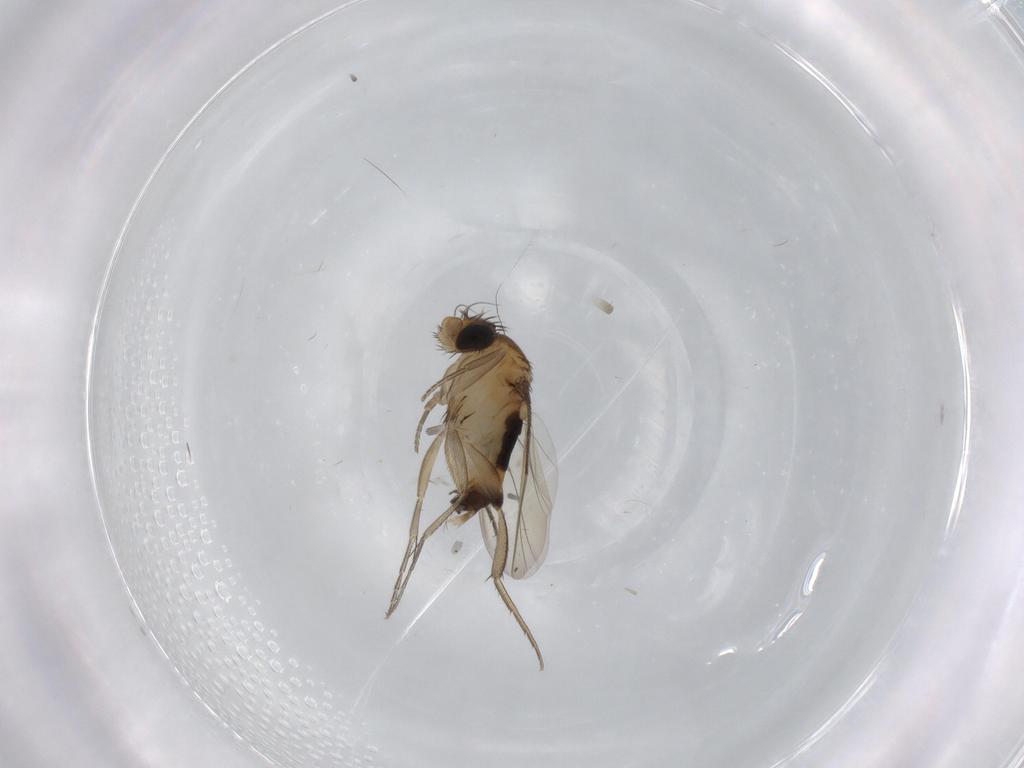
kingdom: Animalia
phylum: Arthropoda
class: Insecta
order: Diptera
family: Phoridae
